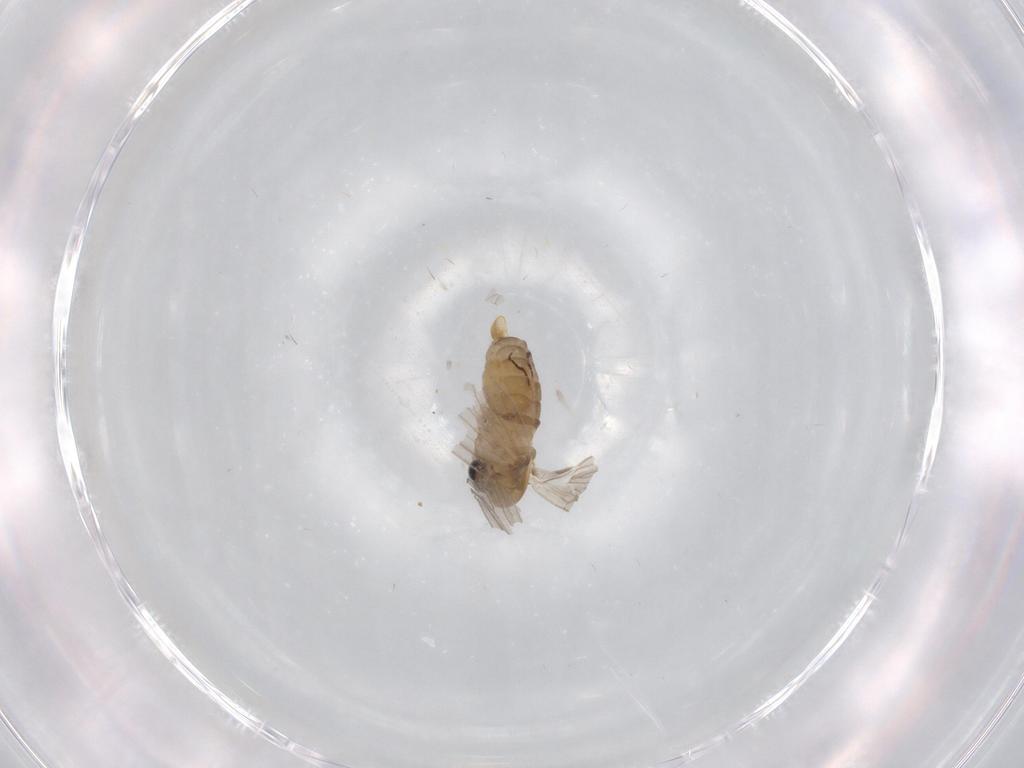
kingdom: Animalia
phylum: Arthropoda
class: Insecta
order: Diptera
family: Psychodidae
